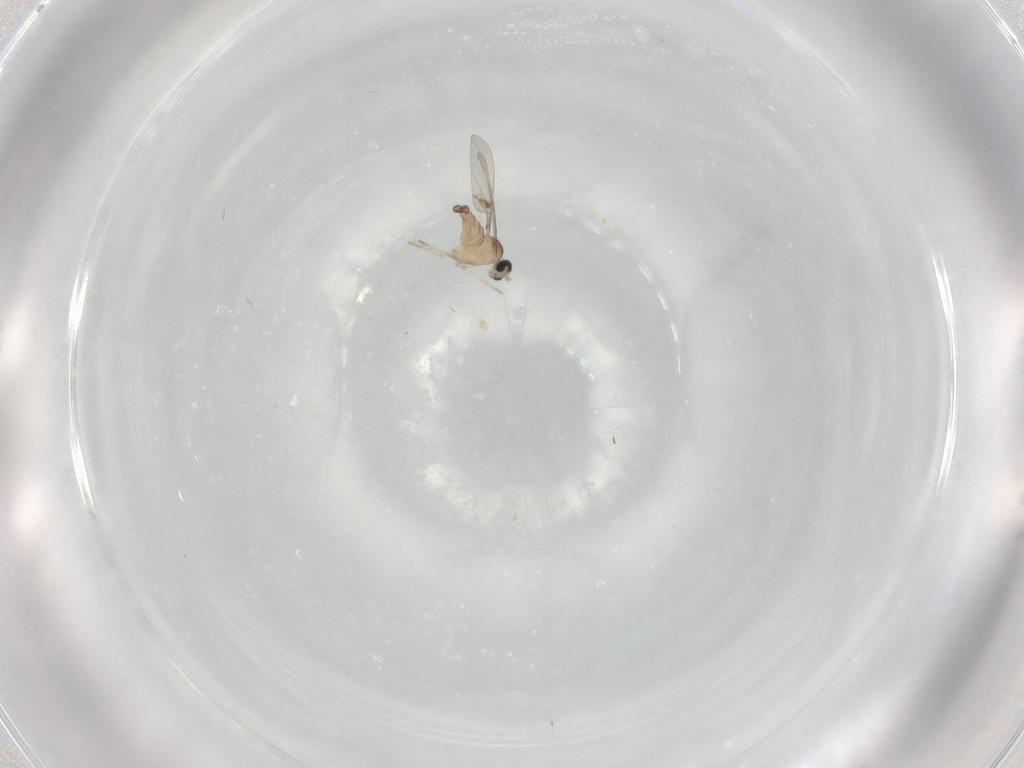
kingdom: Animalia
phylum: Arthropoda
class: Insecta
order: Diptera
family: Cecidomyiidae
